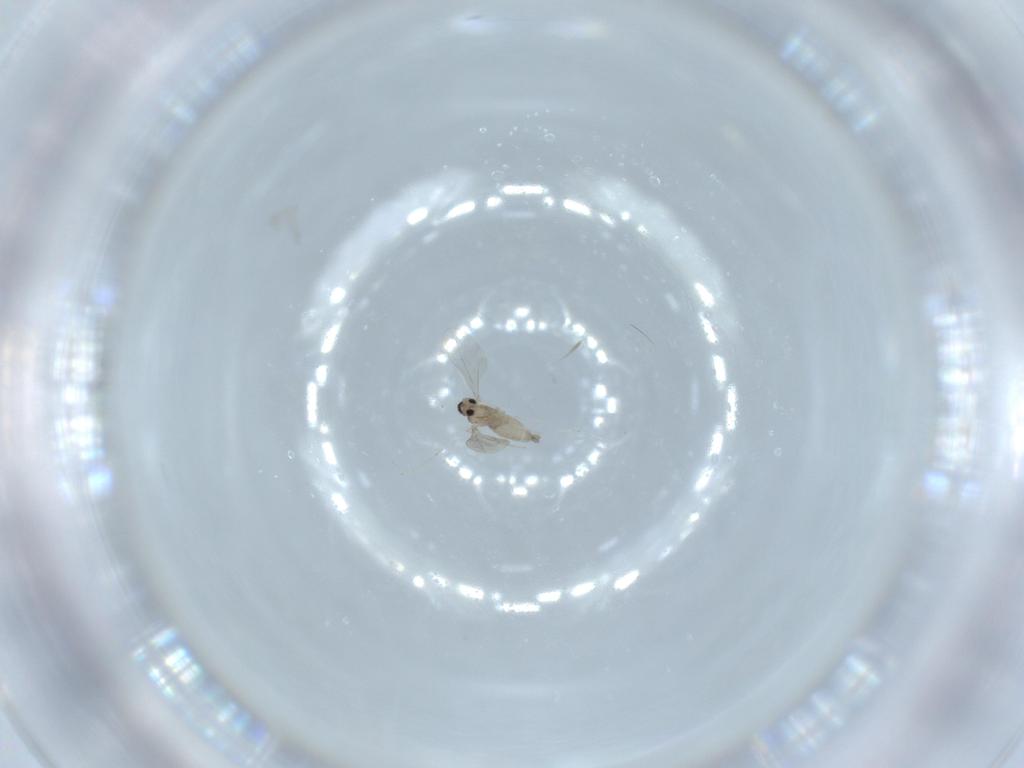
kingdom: Animalia
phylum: Arthropoda
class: Insecta
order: Diptera
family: Cecidomyiidae
